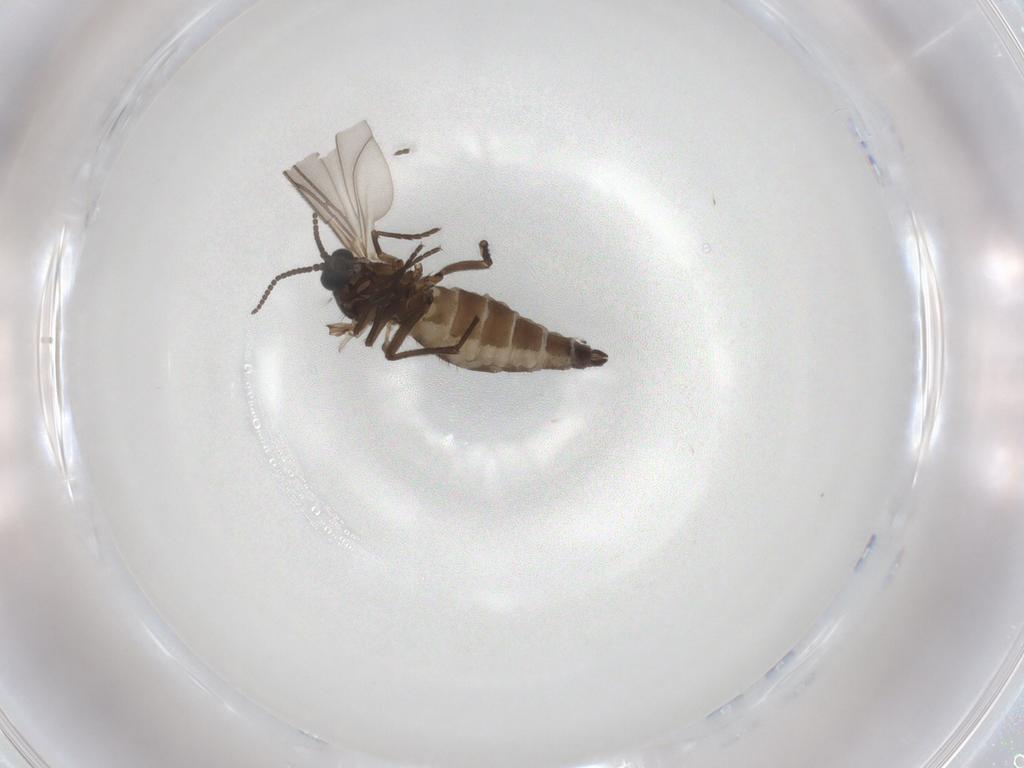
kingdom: Animalia
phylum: Arthropoda
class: Insecta
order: Diptera
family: Sciaridae
